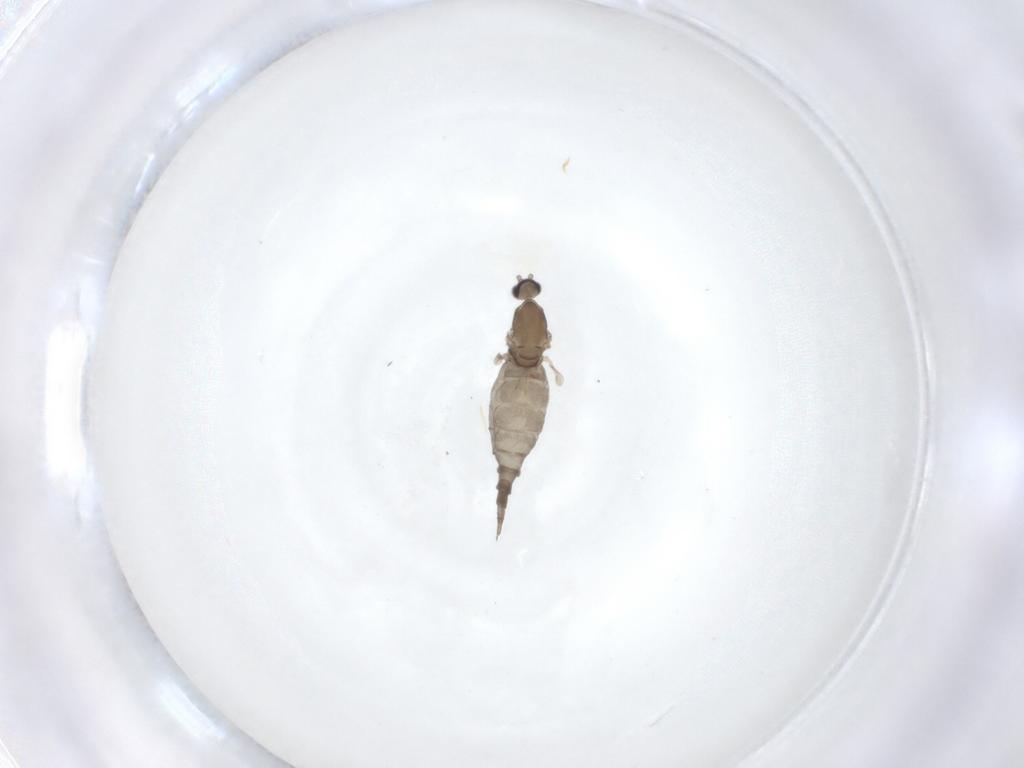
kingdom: Animalia
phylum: Arthropoda
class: Insecta
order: Diptera
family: Cecidomyiidae
